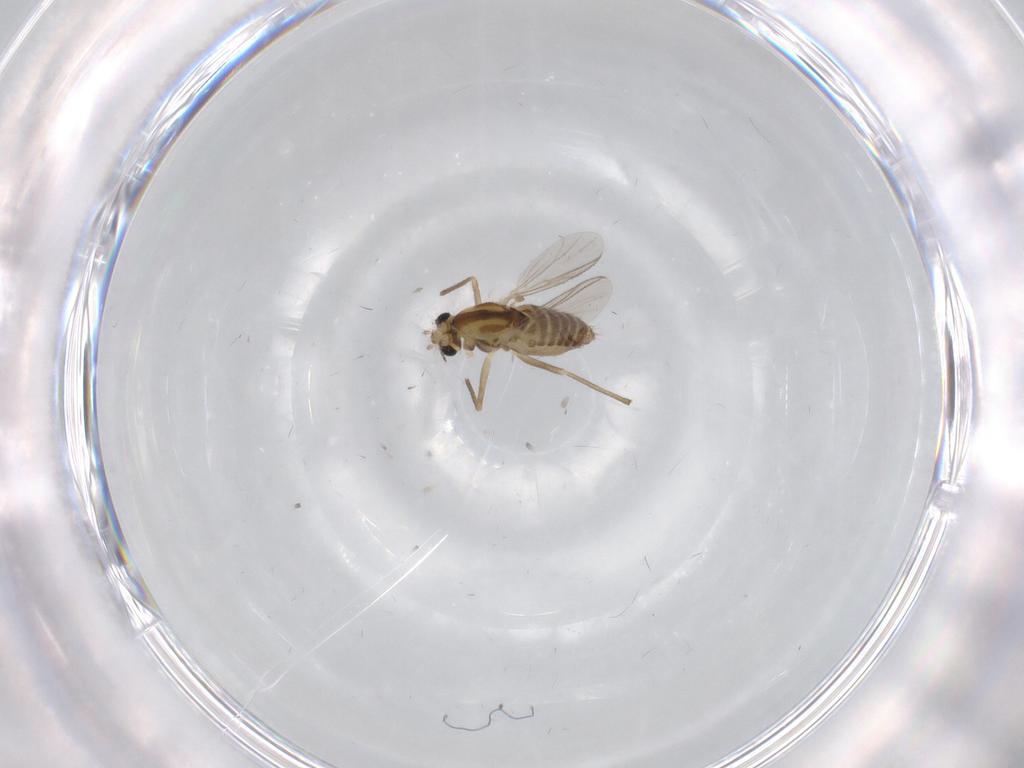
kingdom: Animalia
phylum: Arthropoda
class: Insecta
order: Diptera
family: Chironomidae
